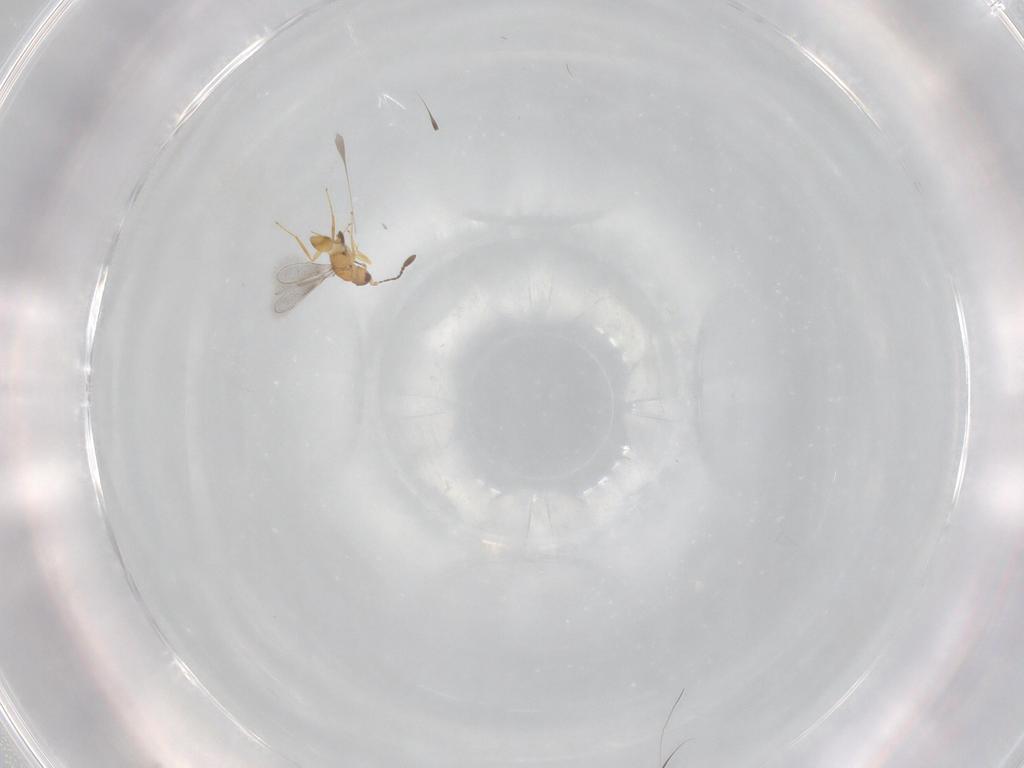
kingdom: Animalia
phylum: Arthropoda
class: Insecta
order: Hymenoptera
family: Mymaridae
